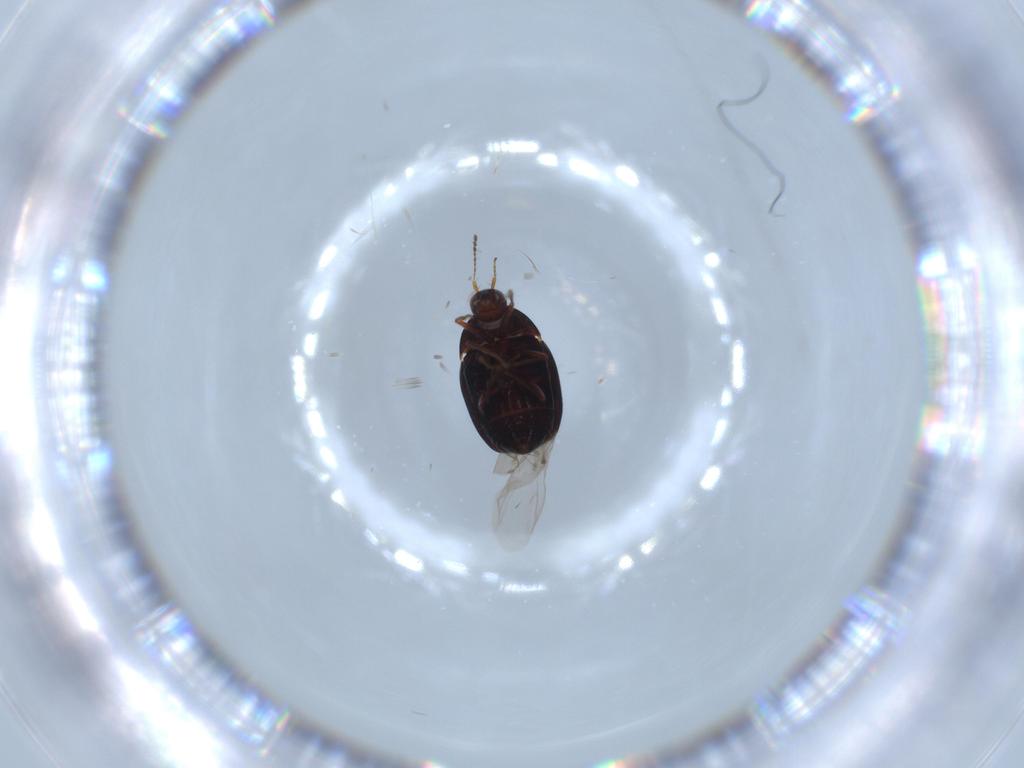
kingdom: Animalia
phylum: Arthropoda
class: Insecta
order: Coleoptera
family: Staphylinidae
